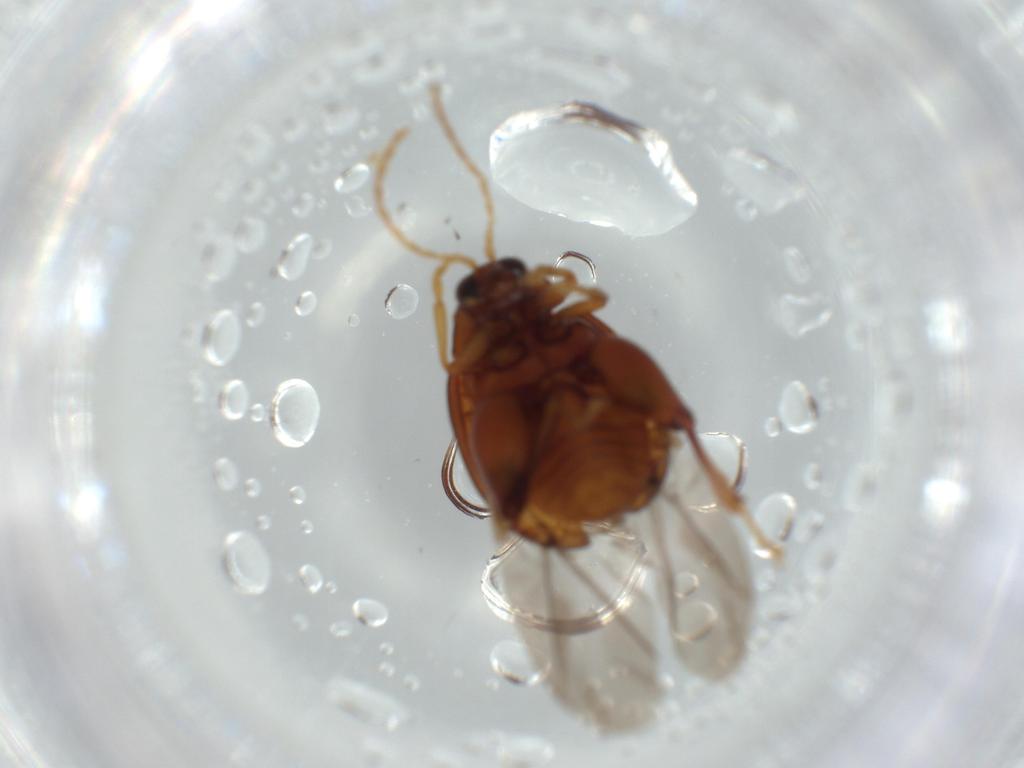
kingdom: Animalia
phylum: Arthropoda
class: Insecta
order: Coleoptera
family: Chrysomelidae
